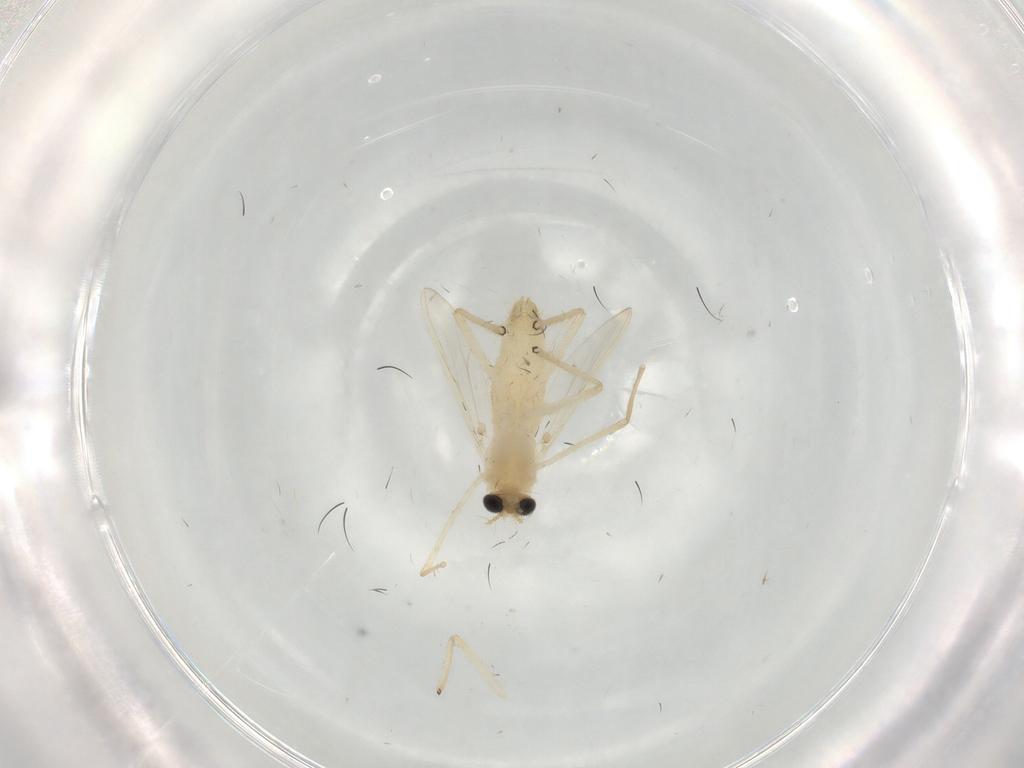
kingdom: Animalia
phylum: Arthropoda
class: Insecta
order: Diptera
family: Chironomidae
